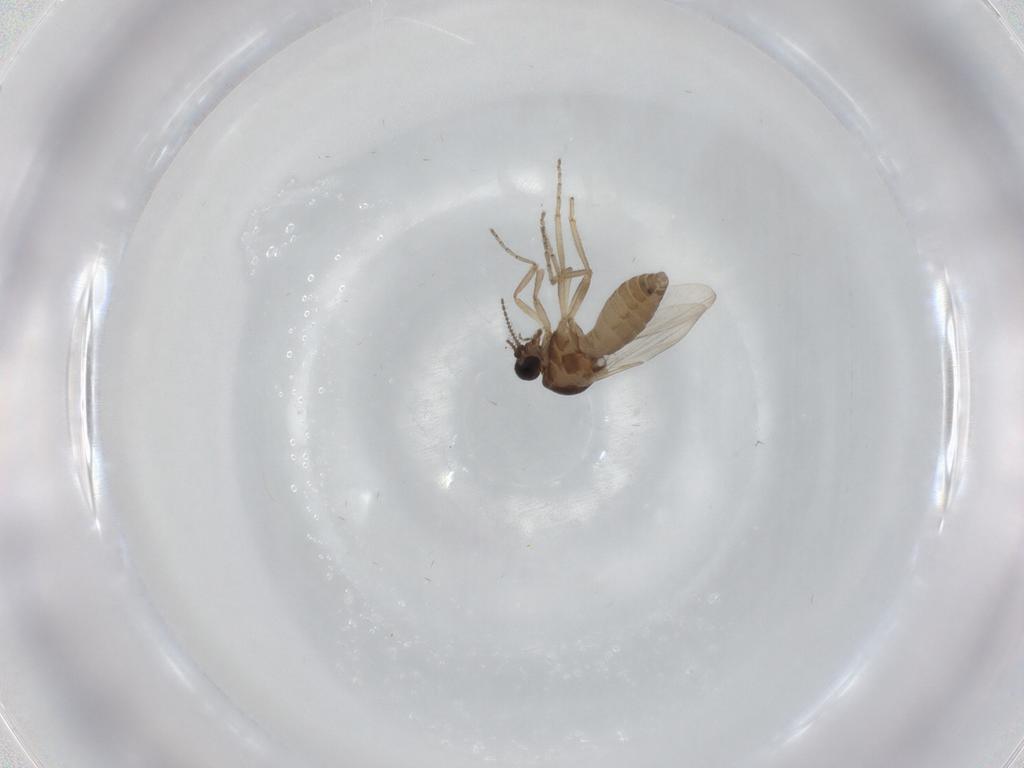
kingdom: Animalia
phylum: Arthropoda
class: Insecta
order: Diptera
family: Ceratopogonidae
